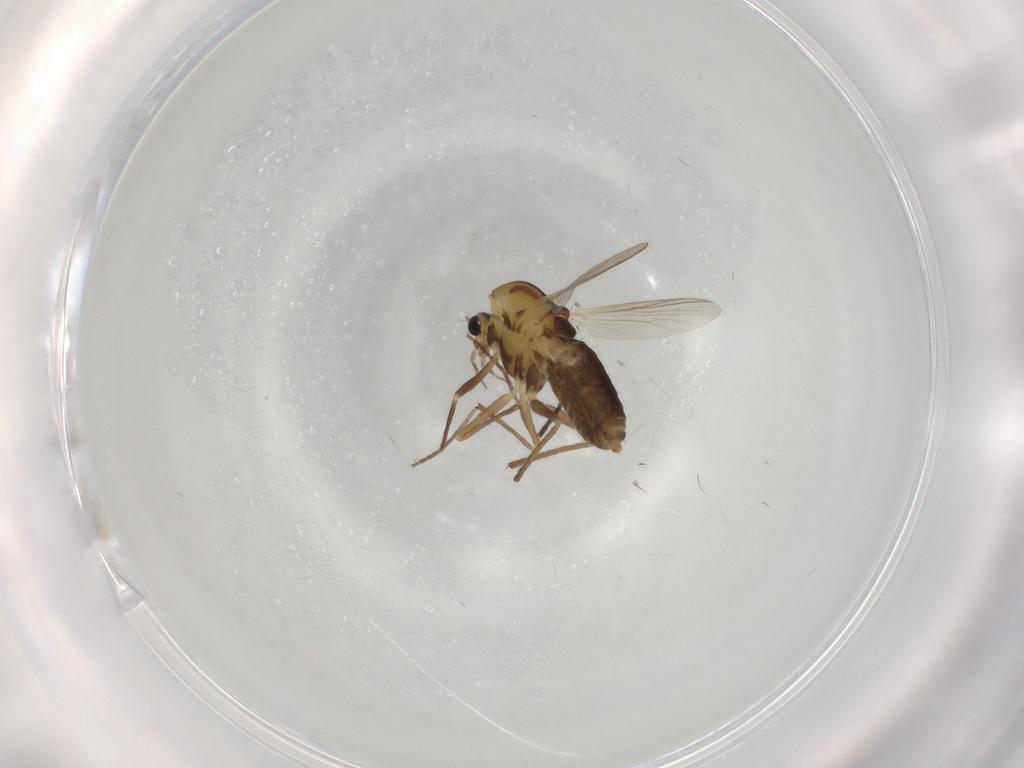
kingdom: Animalia
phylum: Arthropoda
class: Insecta
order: Diptera
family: Chironomidae
